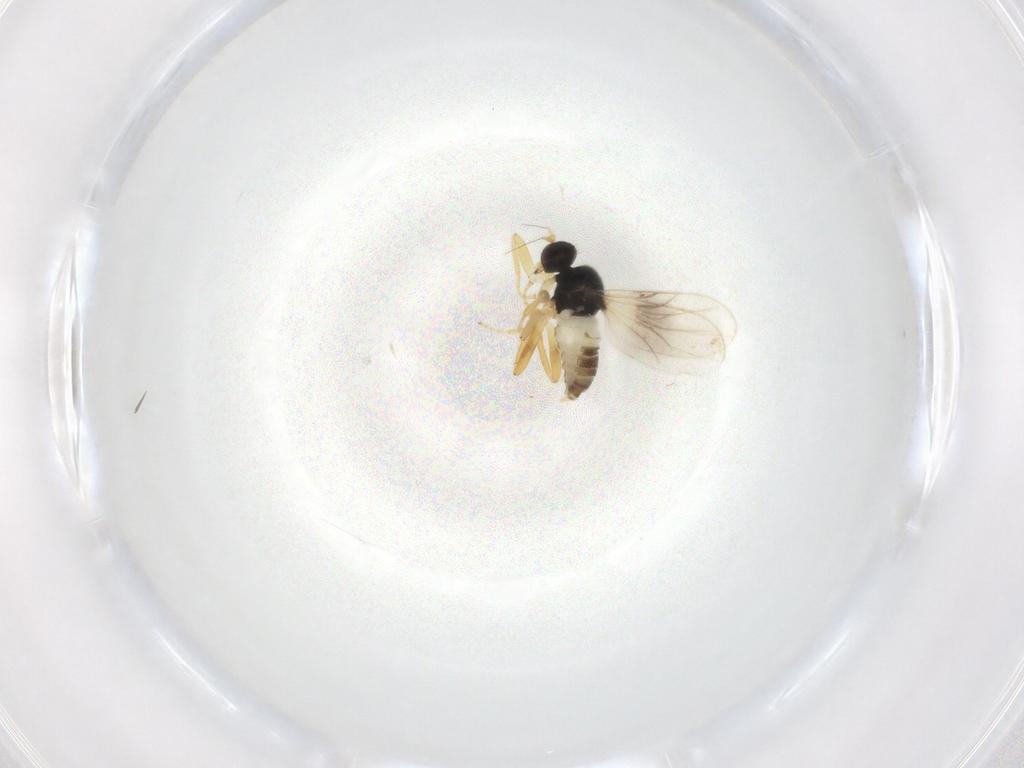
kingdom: Animalia
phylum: Arthropoda
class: Insecta
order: Diptera
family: Hybotidae
